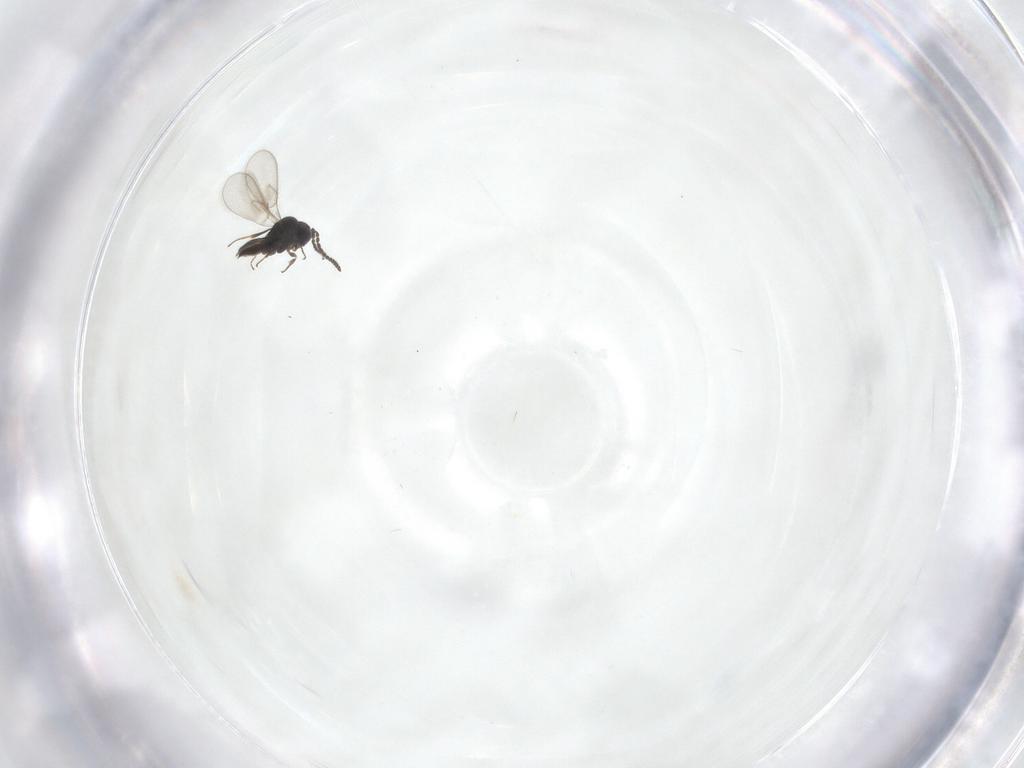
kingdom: Animalia
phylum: Arthropoda
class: Insecta
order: Hymenoptera
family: Scelionidae
